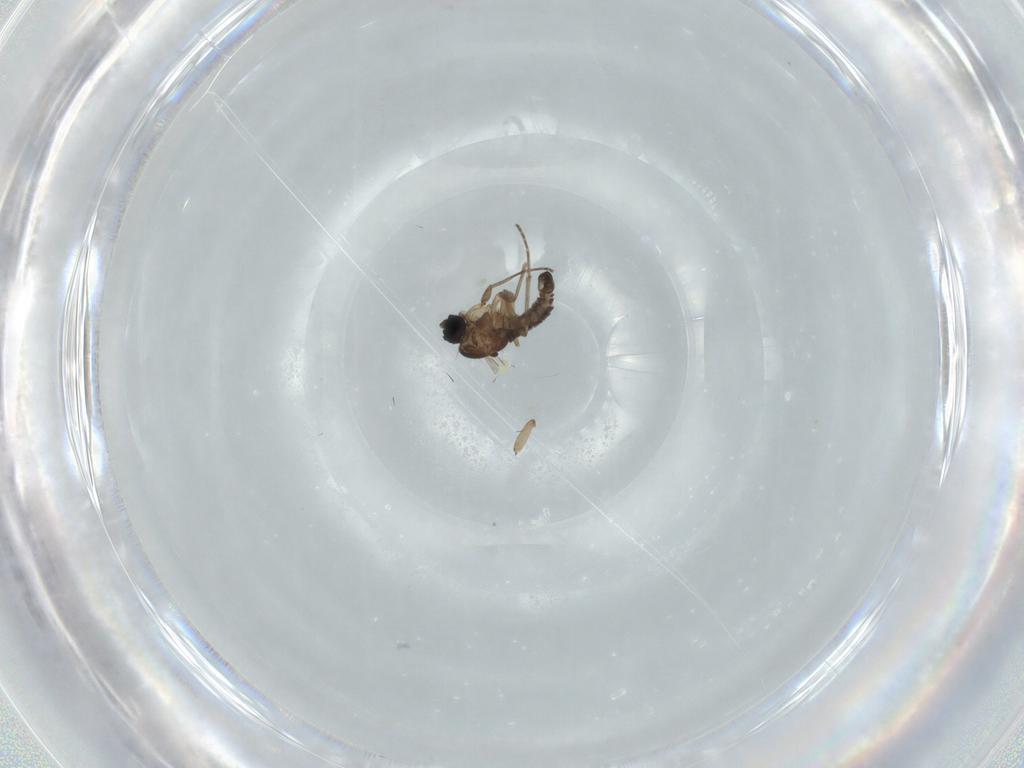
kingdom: Animalia
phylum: Arthropoda
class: Insecta
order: Diptera
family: Sciaridae
